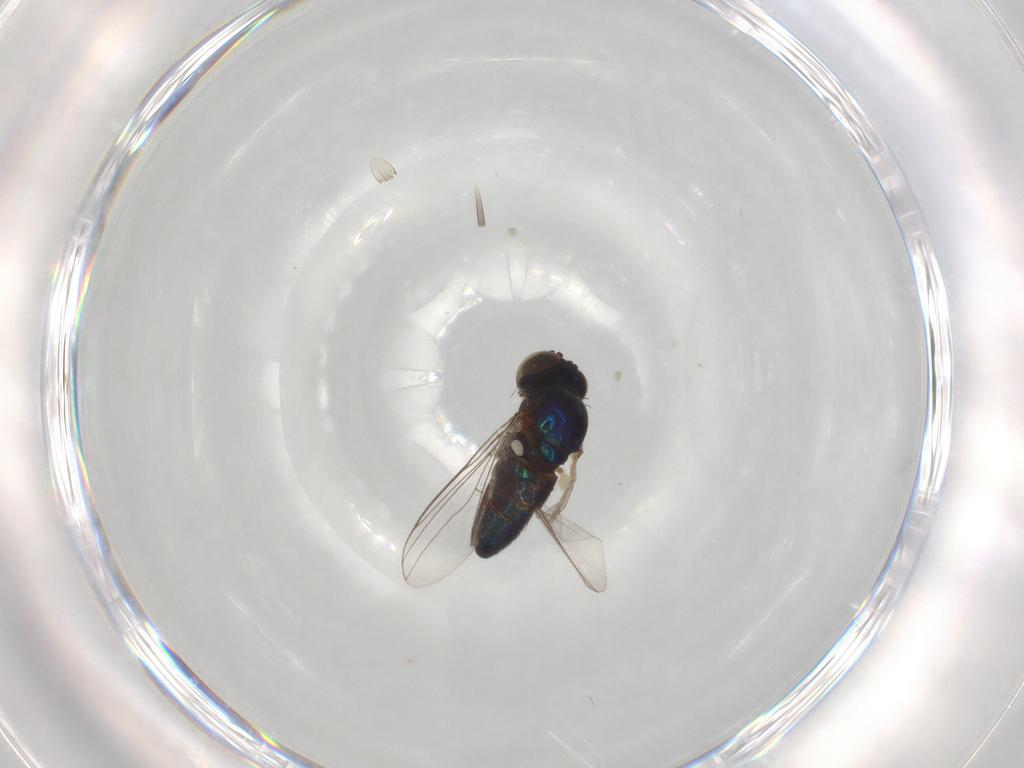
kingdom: Animalia
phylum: Arthropoda
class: Insecta
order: Diptera
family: Dolichopodidae
